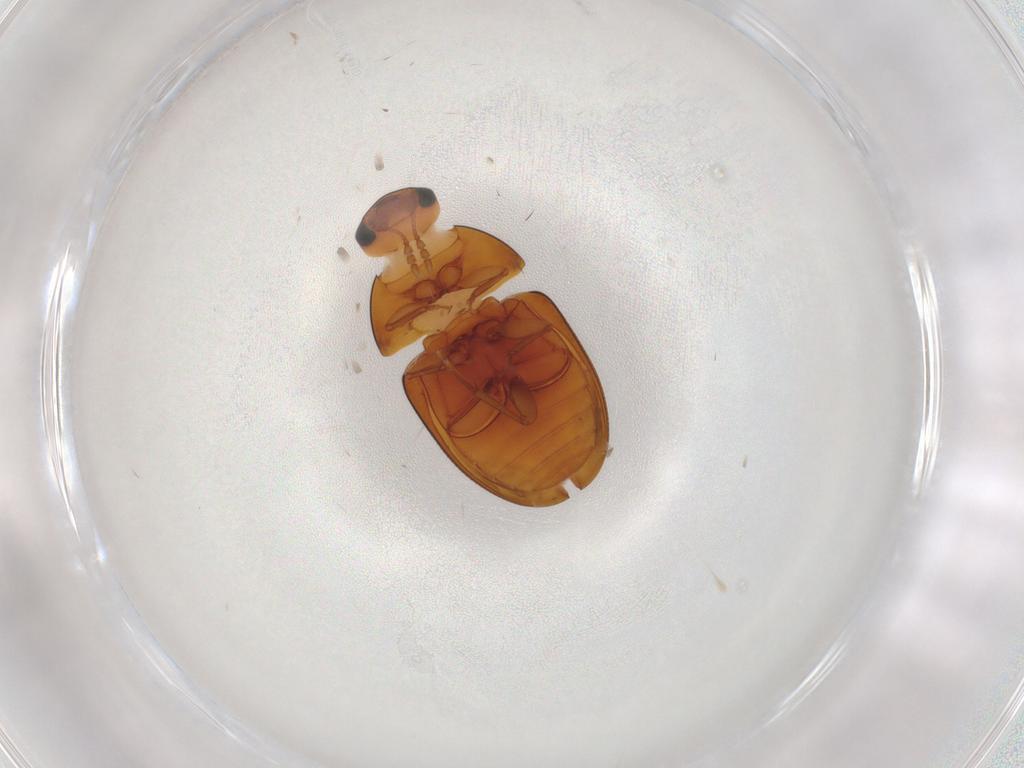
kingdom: Animalia
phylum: Arthropoda
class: Insecta
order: Coleoptera
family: Phalacridae
